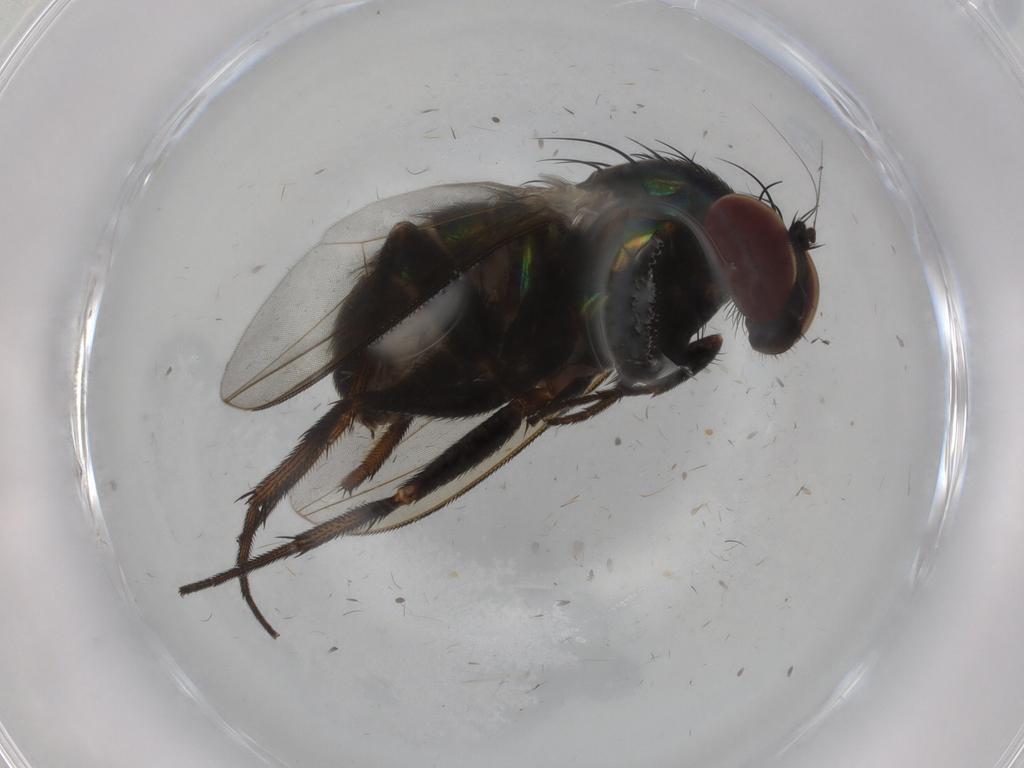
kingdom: Animalia
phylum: Arthropoda
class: Insecta
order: Diptera
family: Dolichopodidae
